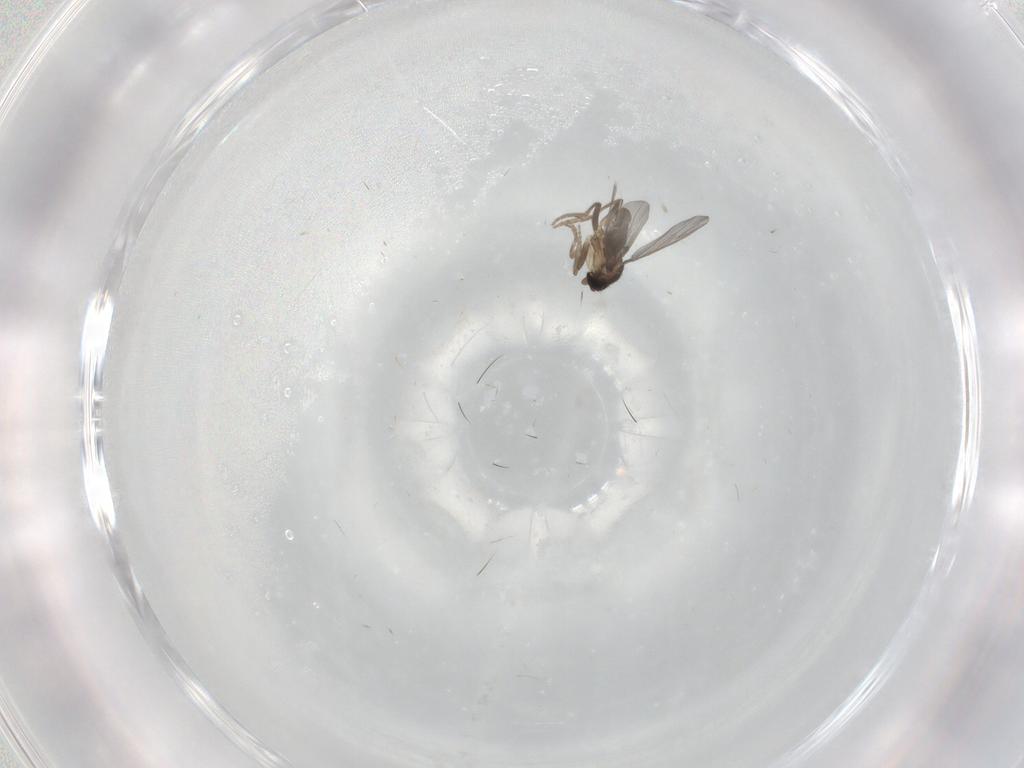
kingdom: Animalia
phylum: Arthropoda
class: Insecta
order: Diptera
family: Phoridae
